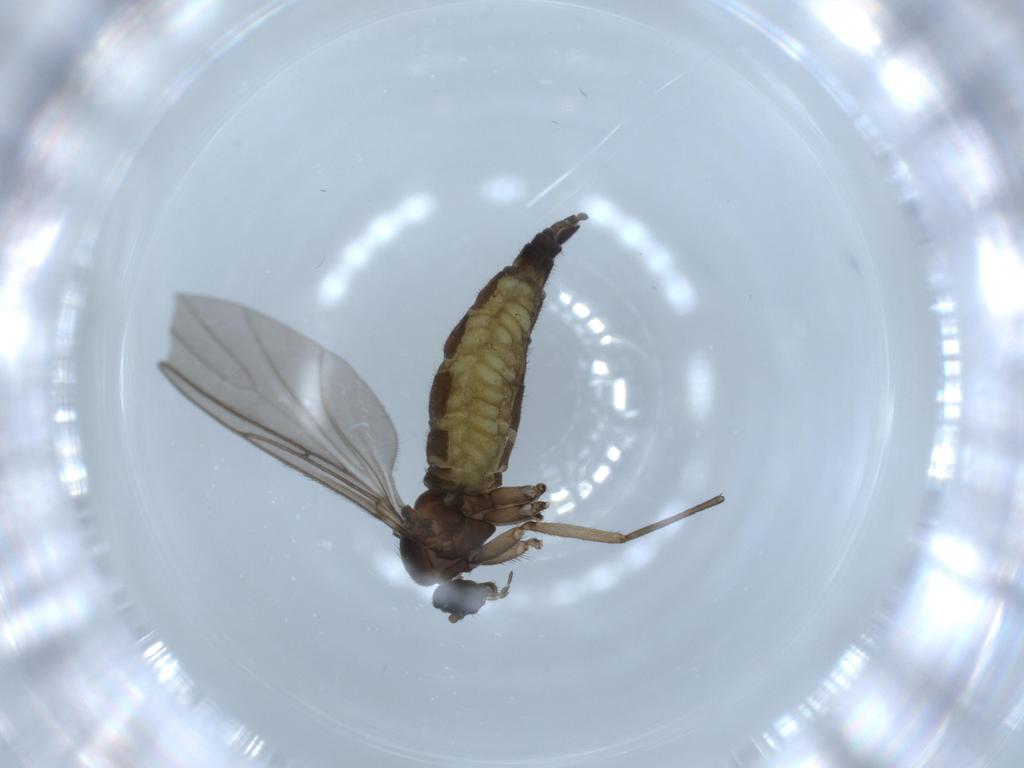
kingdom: Animalia
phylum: Arthropoda
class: Insecta
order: Diptera
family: Sciaridae
